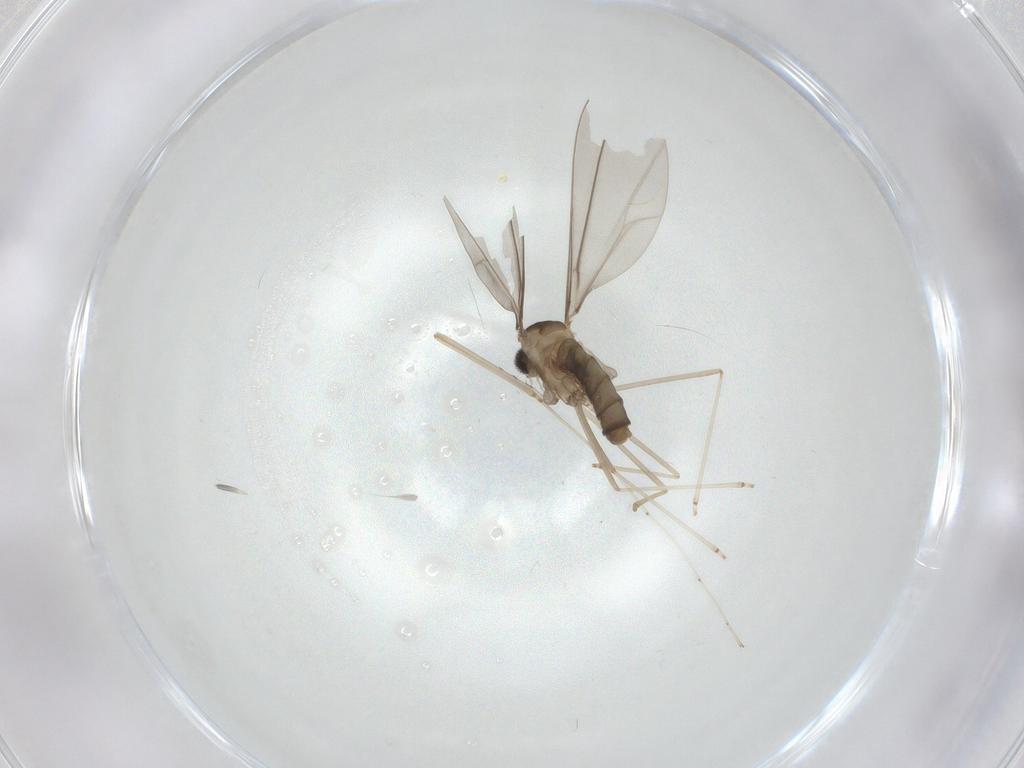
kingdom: Animalia
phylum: Arthropoda
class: Insecta
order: Diptera
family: Cecidomyiidae
